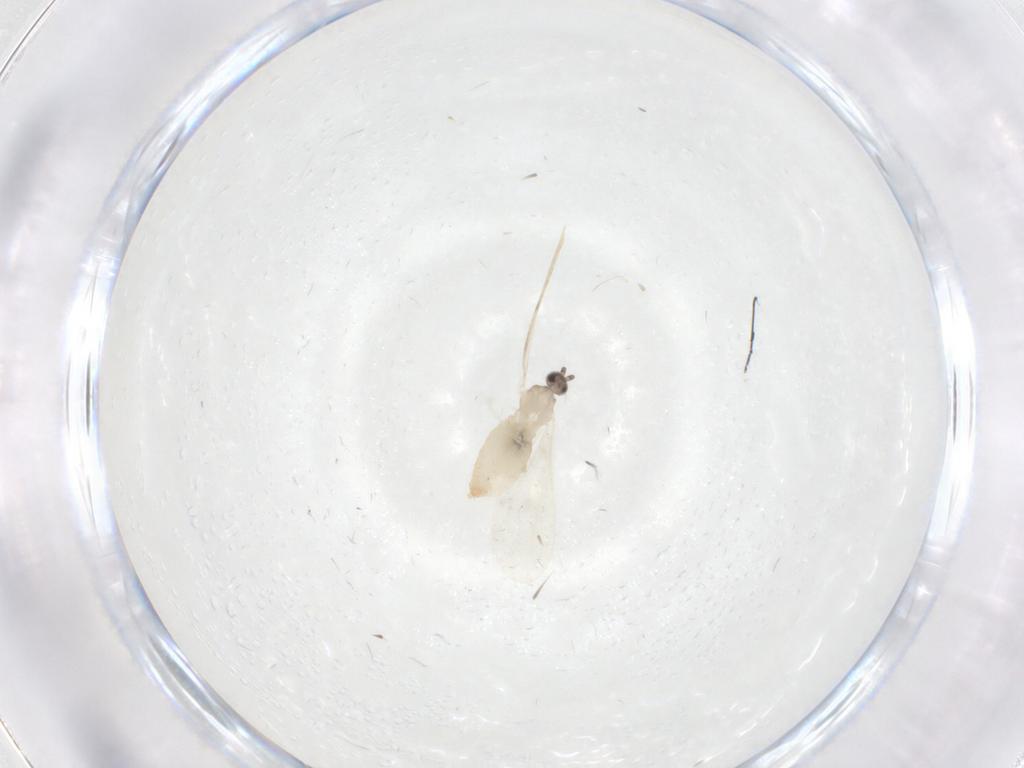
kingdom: Animalia
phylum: Arthropoda
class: Insecta
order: Diptera
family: Cecidomyiidae
